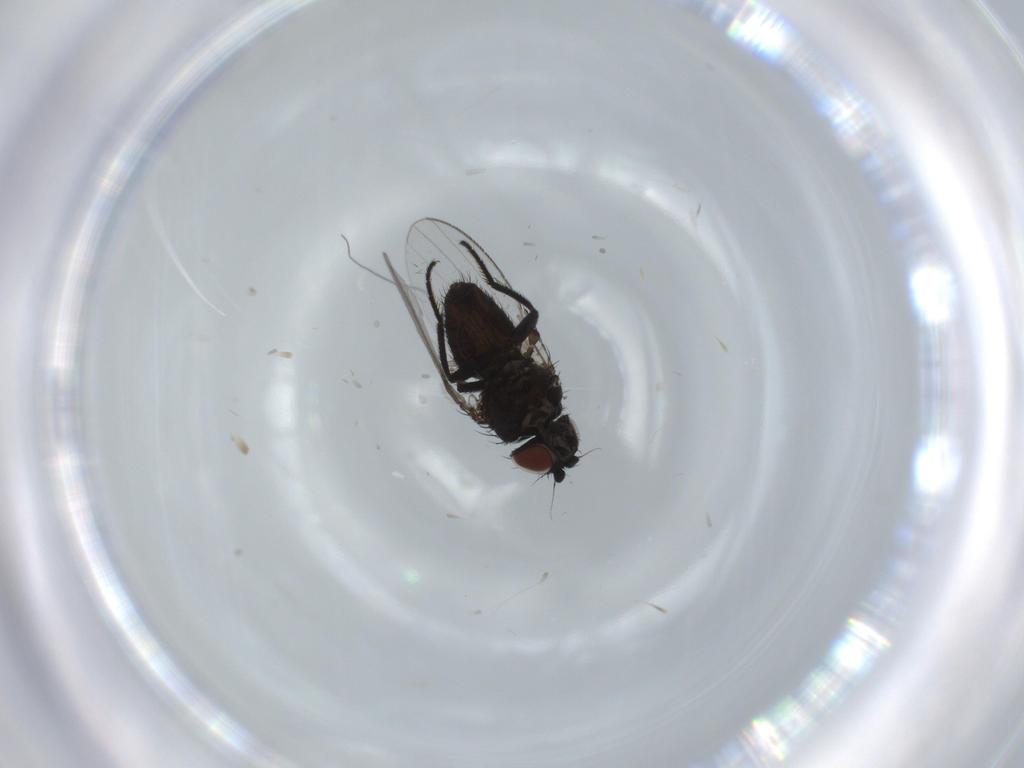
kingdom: Animalia
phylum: Arthropoda
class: Insecta
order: Diptera
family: Milichiidae
